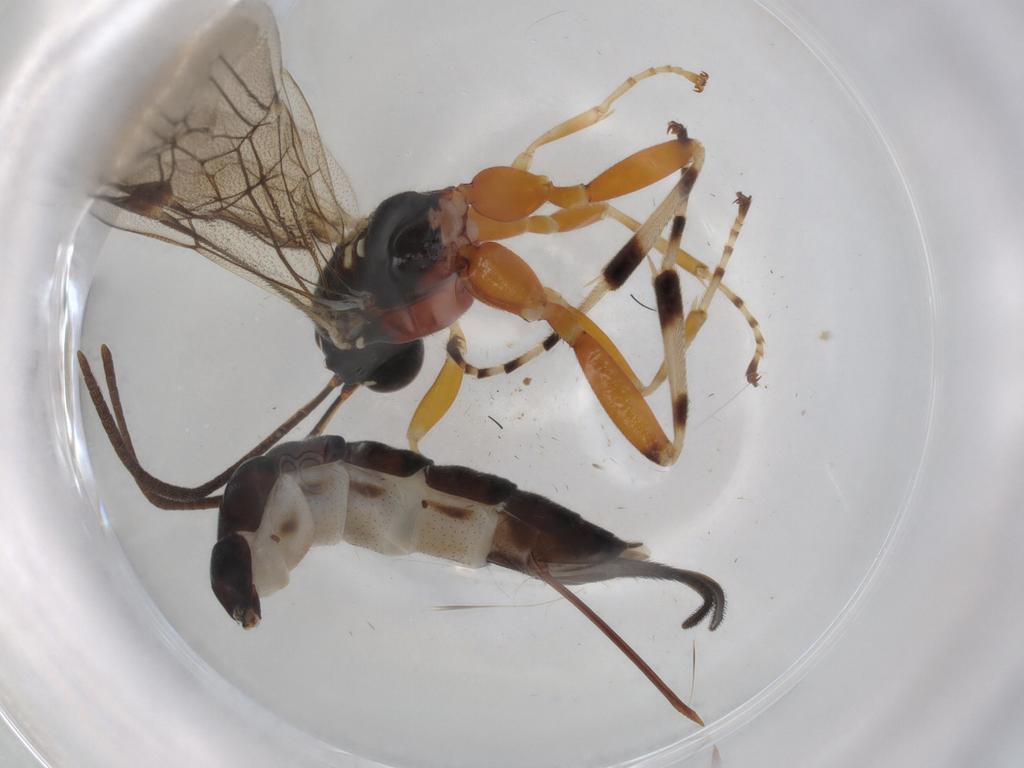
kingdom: Animalia
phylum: Arthropoda
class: Insecta
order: Hymenoptera
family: Ichneumonidae
